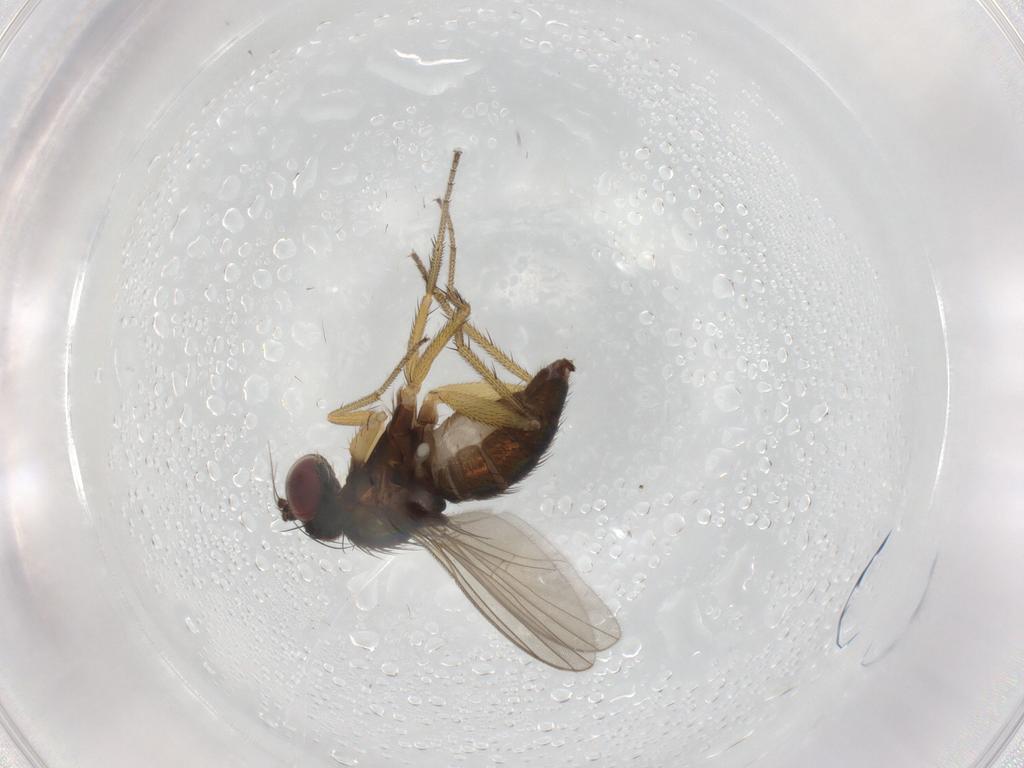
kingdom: Animalia
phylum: Arthropoda
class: Insecta
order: Diptera
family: Dolichopodidae
